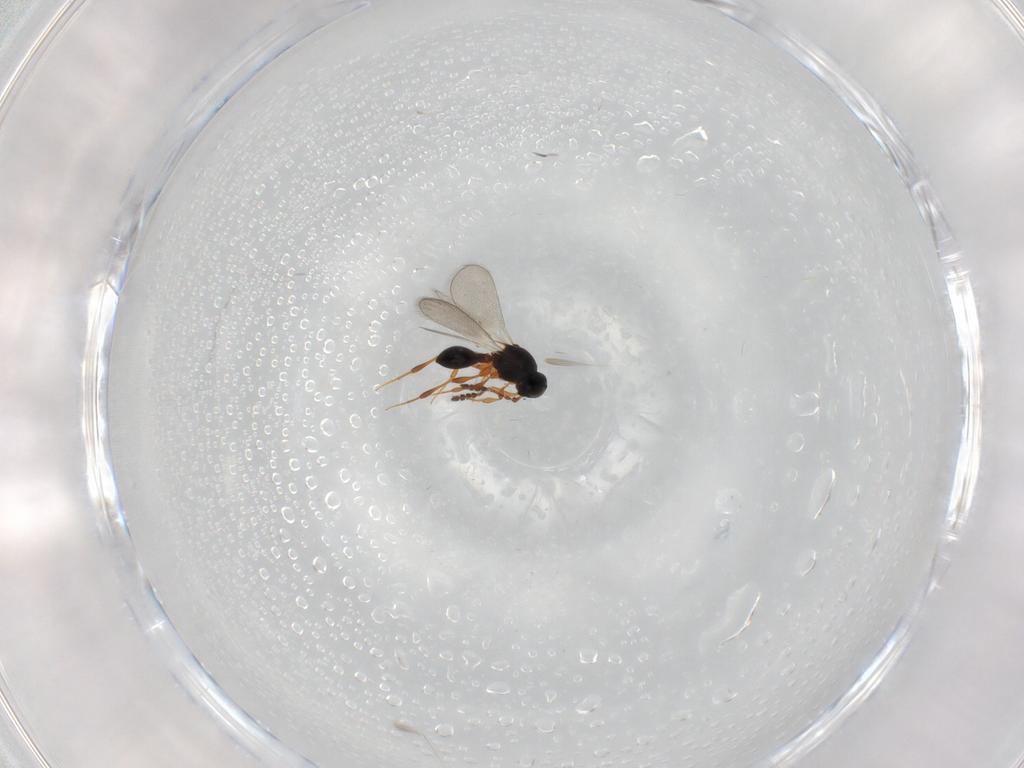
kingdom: Animalia
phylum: Arthropoda
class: Insecta
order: Hymenoptera
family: Platygastridae
